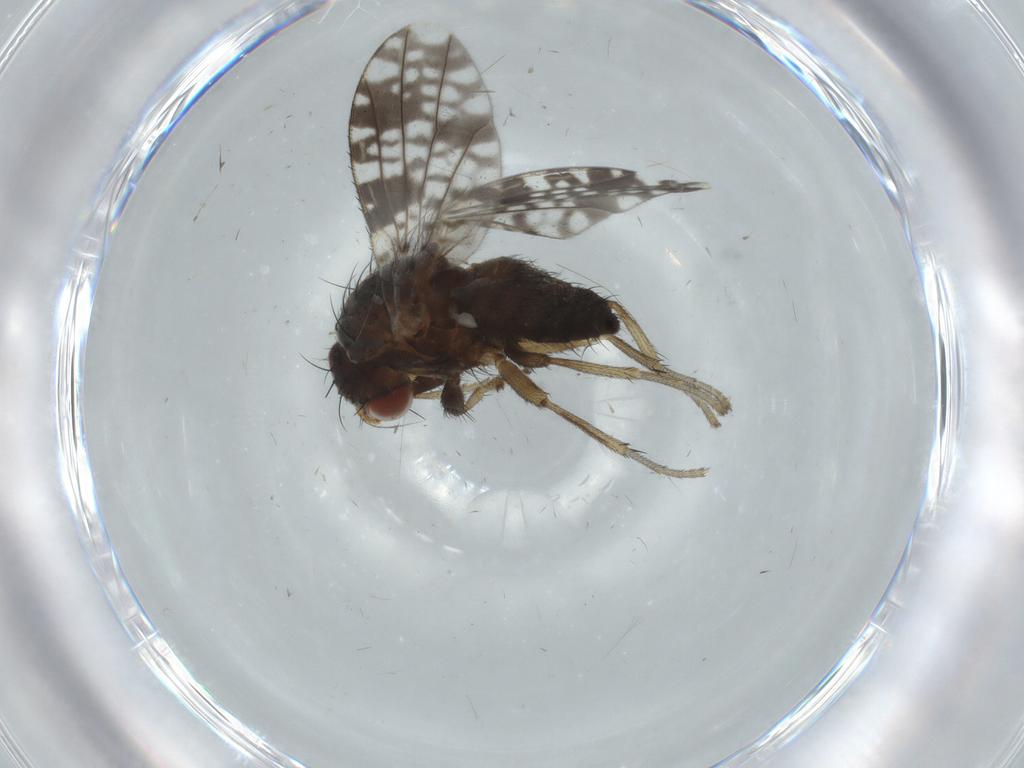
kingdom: Animalia
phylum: Arthropoda
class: Insecta
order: Diptera
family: Tephritidae
